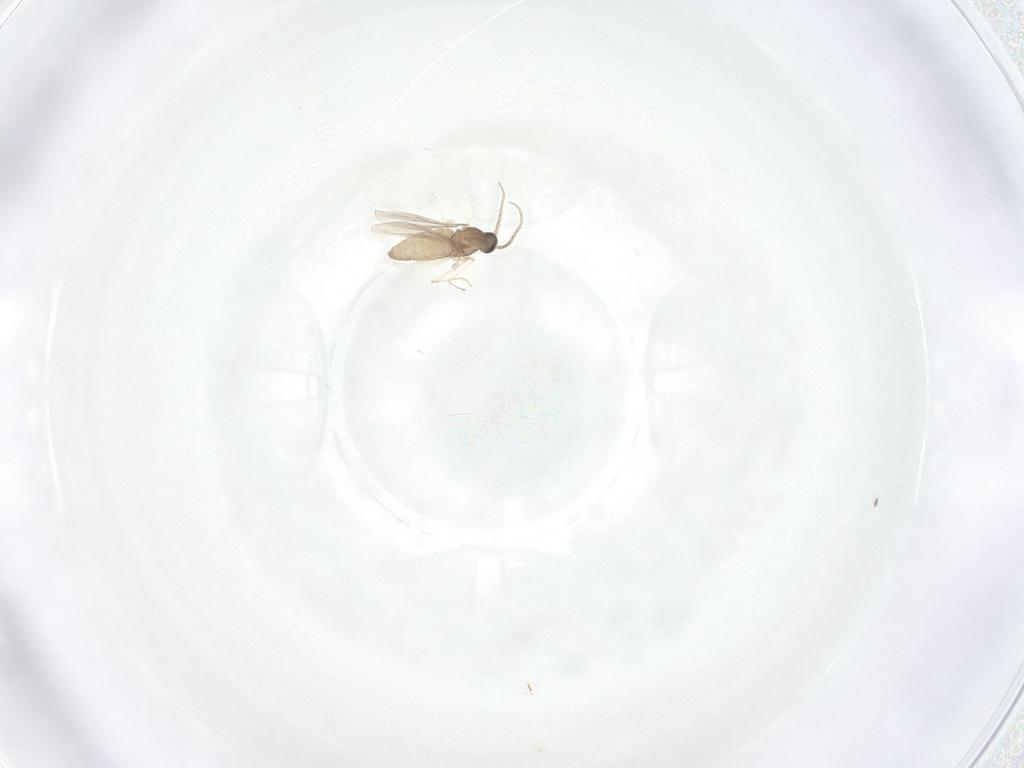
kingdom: Animalia
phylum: Arthropoda
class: Insecta
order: Diptera
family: Cecidomyiidae
